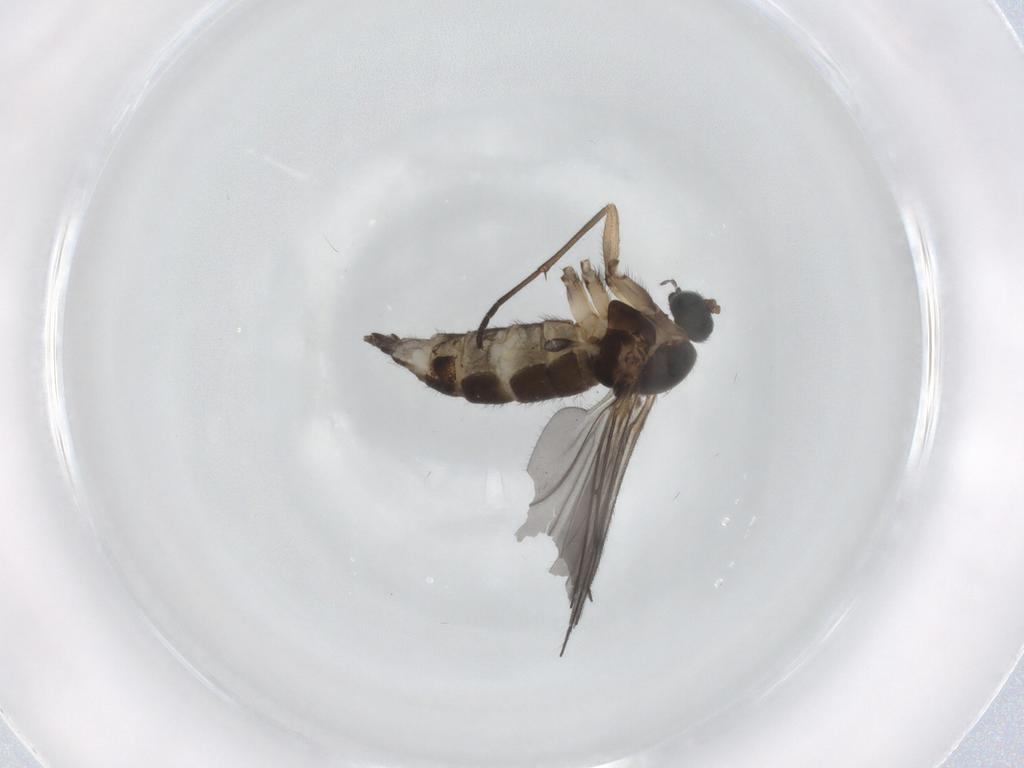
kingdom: Animalia
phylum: Arthropoda
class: Insecta
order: Diptera
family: Sciaridae
